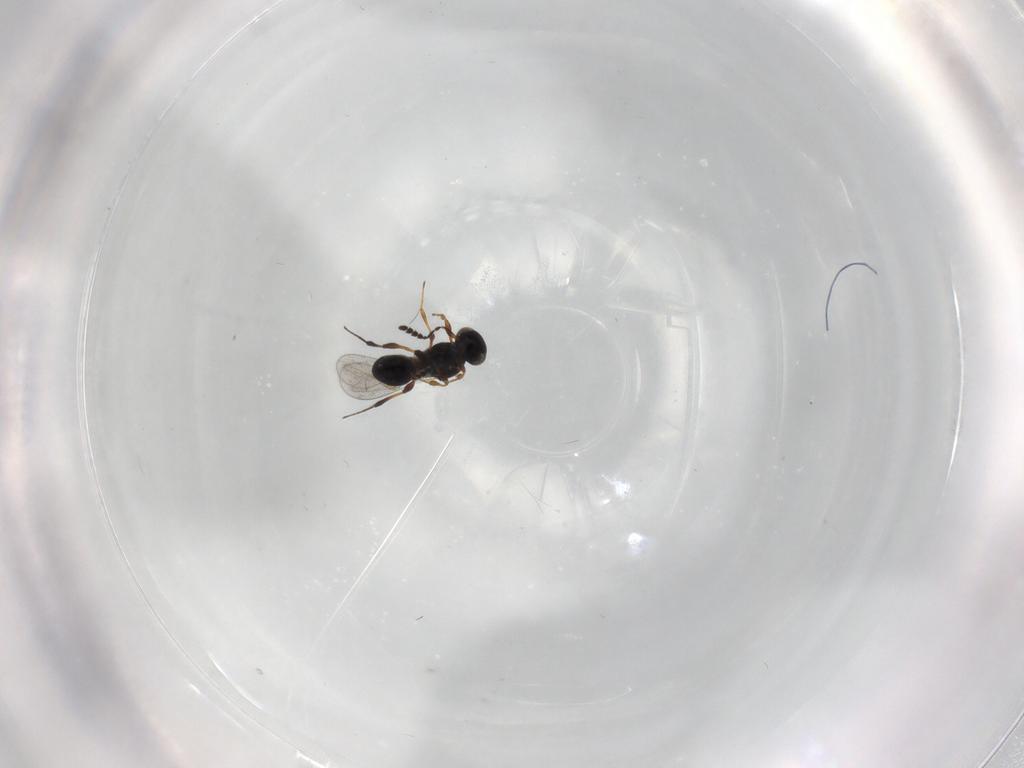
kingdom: Animalia
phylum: Arthropoda
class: Insecta
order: Hymenoptera
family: Platygastridae
